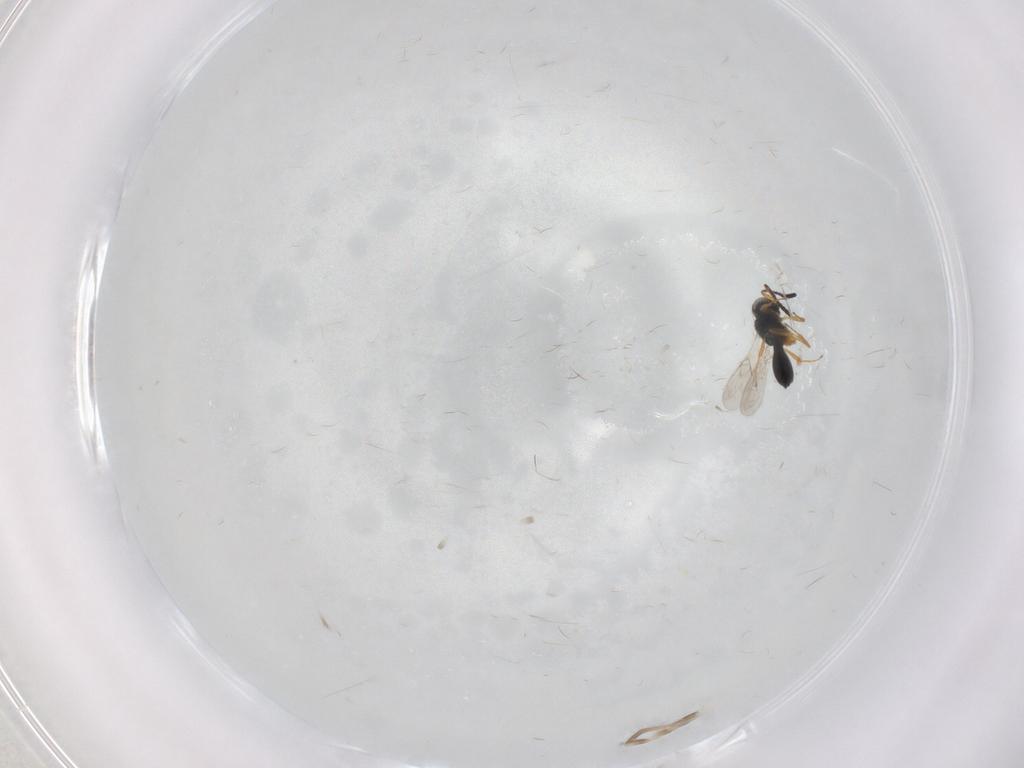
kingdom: Animalia
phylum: Arthropoda
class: Insecta
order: Hymenoptera
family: Scelionidae
